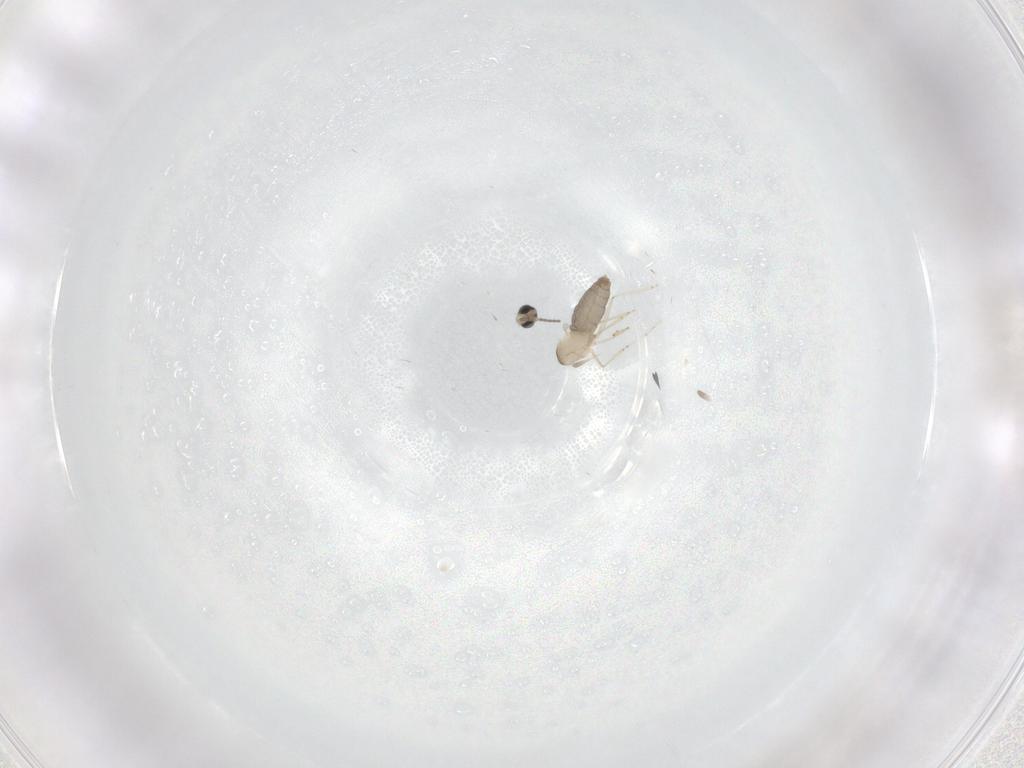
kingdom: Animalia
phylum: Arthropoda
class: Insecta
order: Diptera
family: Cecidomyiidae
